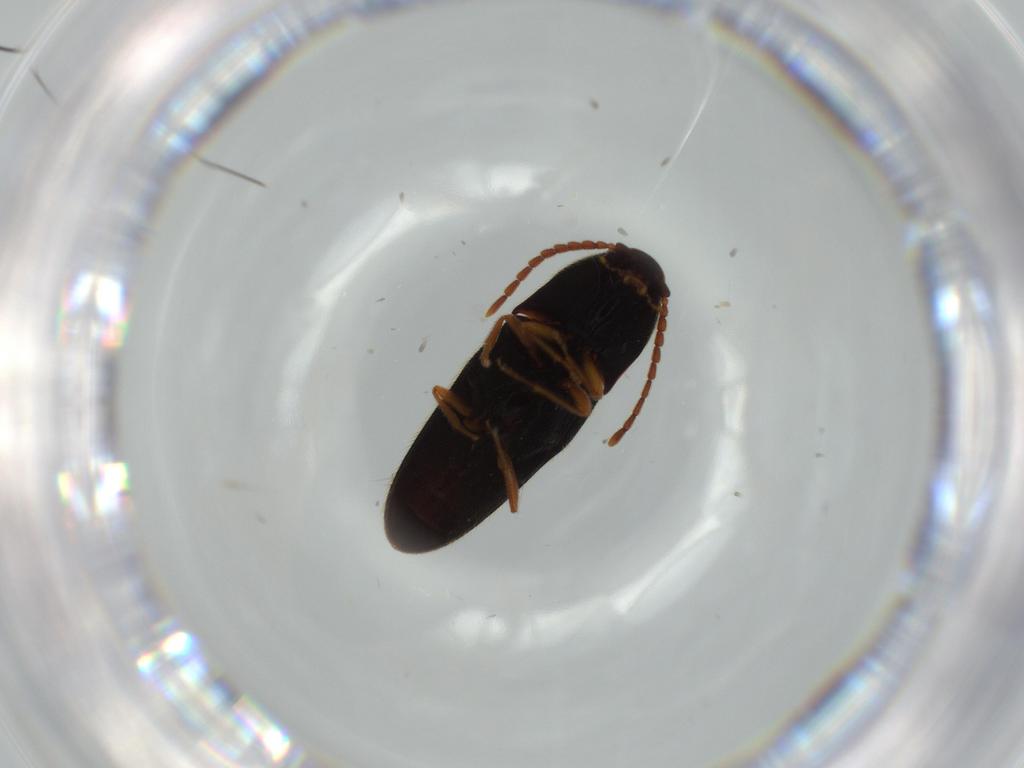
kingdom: Animalia
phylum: Arthropoda
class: Insecta
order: Coleoptera
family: Elateridae
